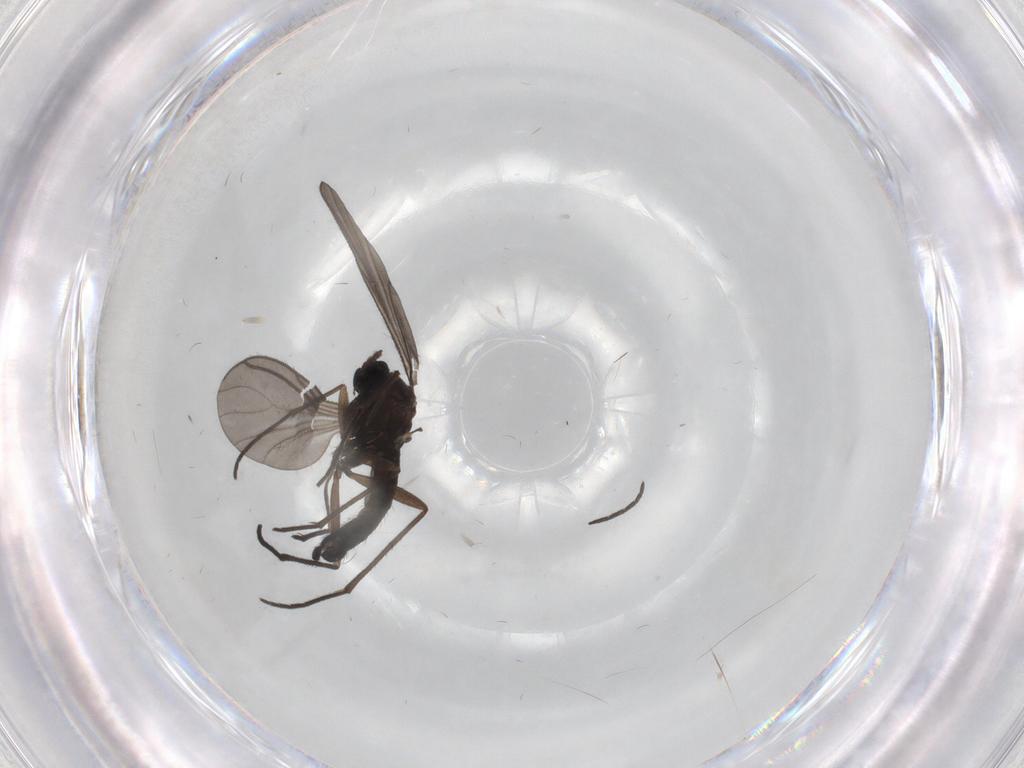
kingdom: Animalia
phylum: Arthropoda
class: Insecta
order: Diptera
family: Sciaridae
